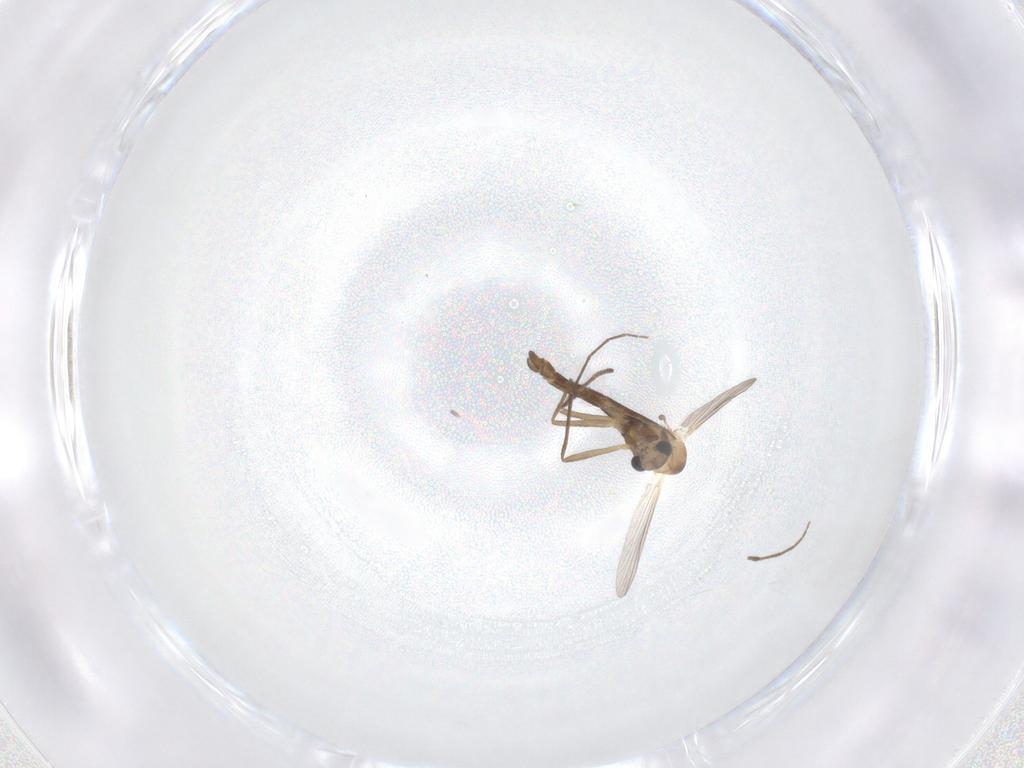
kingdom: Animalia
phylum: Arthropoda
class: Insecta
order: Diptera
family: Chironomidae
